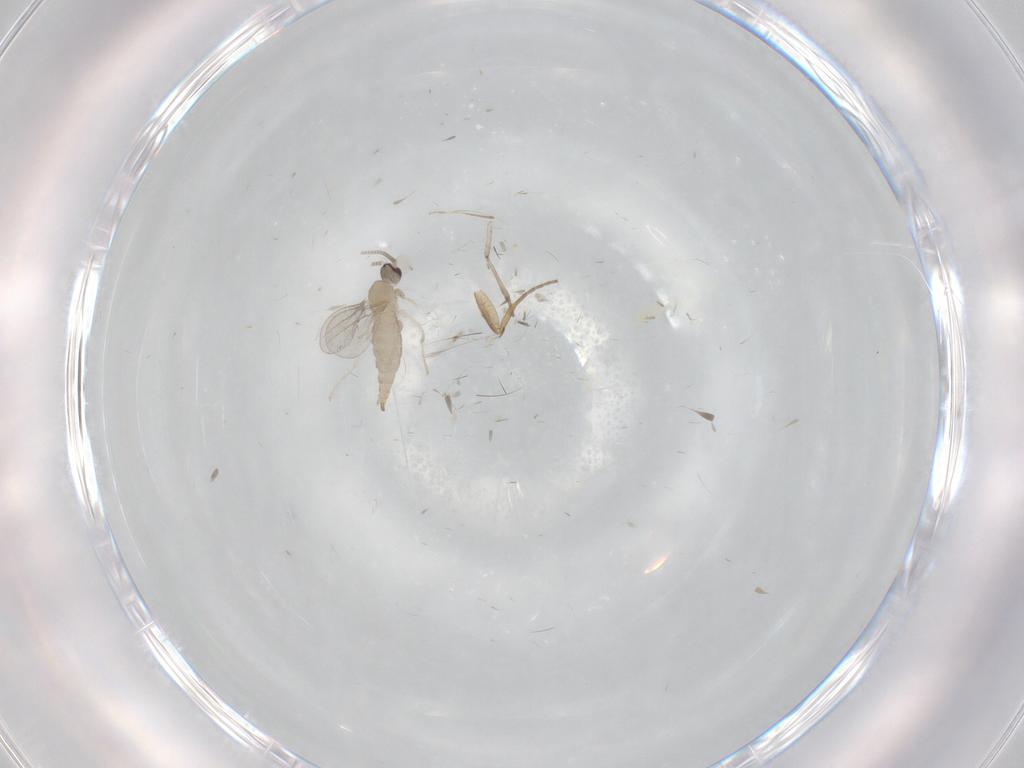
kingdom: Animalia
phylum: Arthropoda
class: Insecta
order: Diptera
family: Cecidomyiidae
